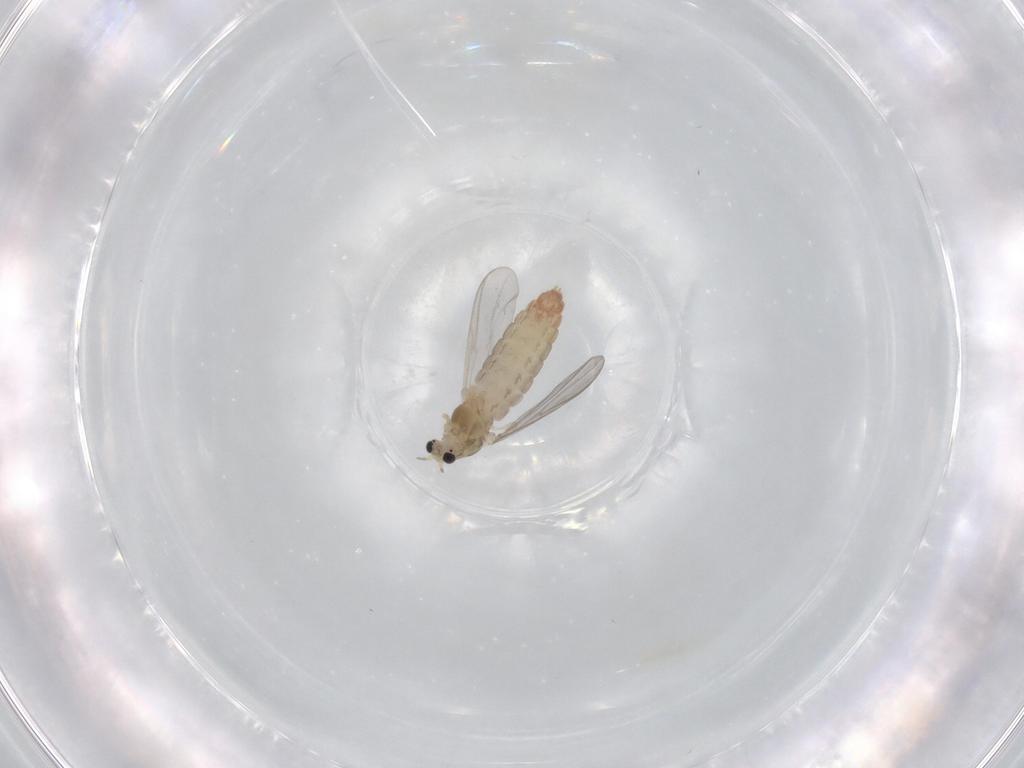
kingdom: Animalia
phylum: Arthropoda
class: Insecta
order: Diptera
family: Chironomidae
